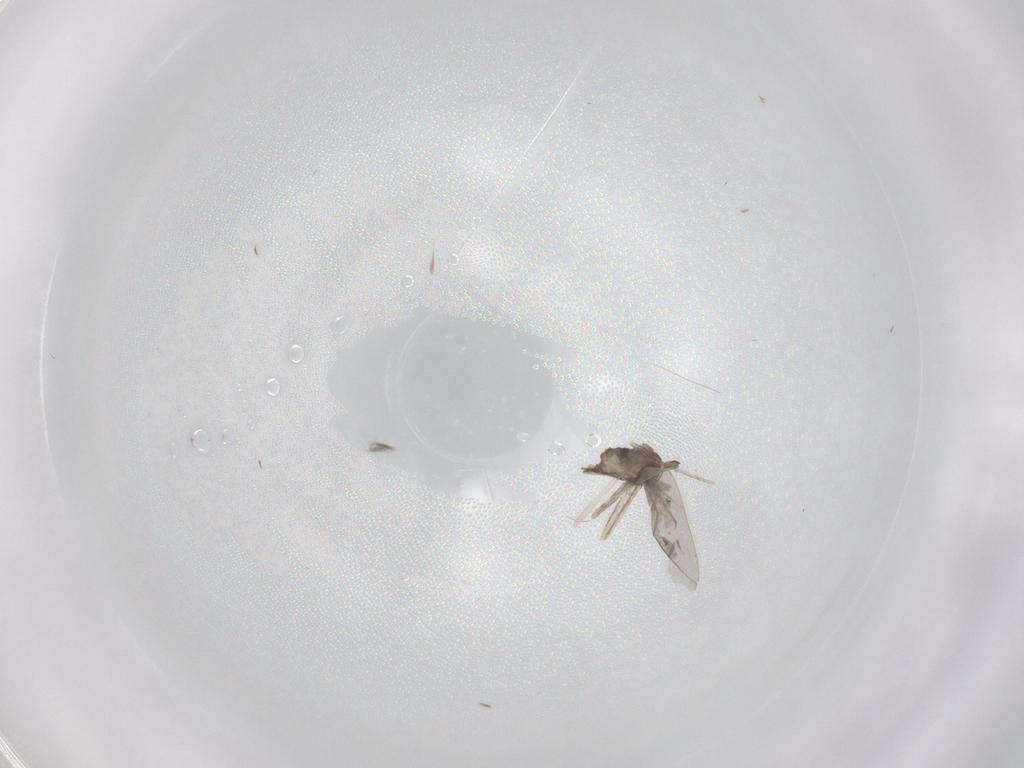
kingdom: Animalia
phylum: Arthropoda
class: Insecta
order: Diptera
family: Cecidomyiidae
